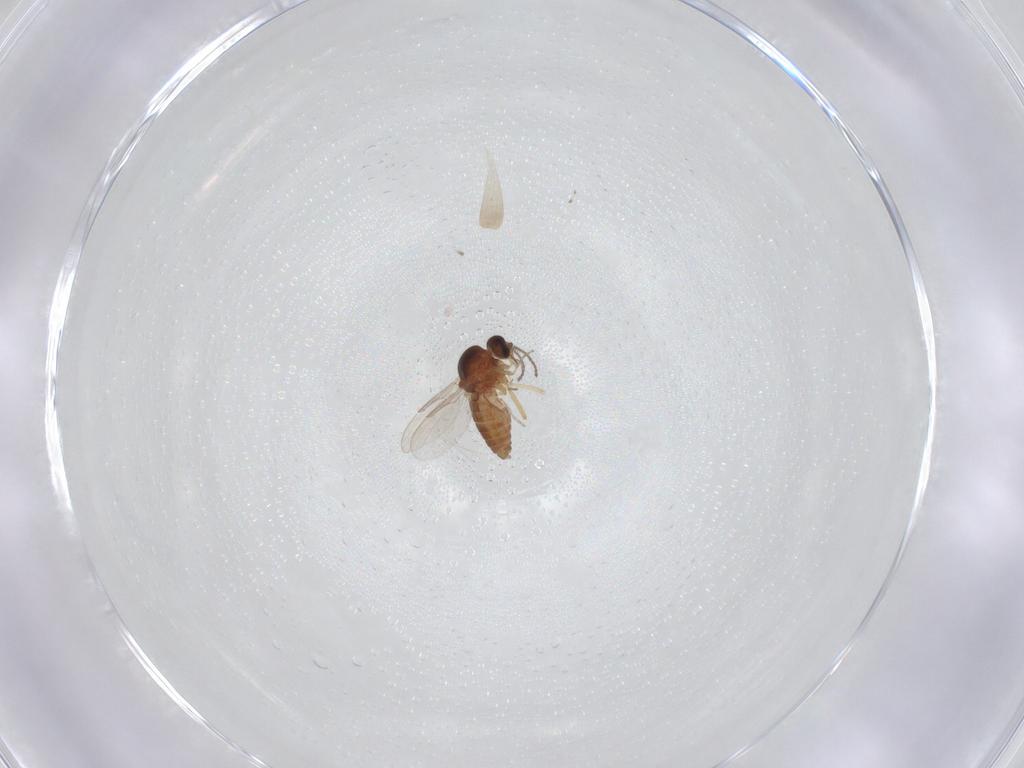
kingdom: Animalia
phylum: Arthropoda
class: Insecta
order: Diptera
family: Ceratopogonidae
